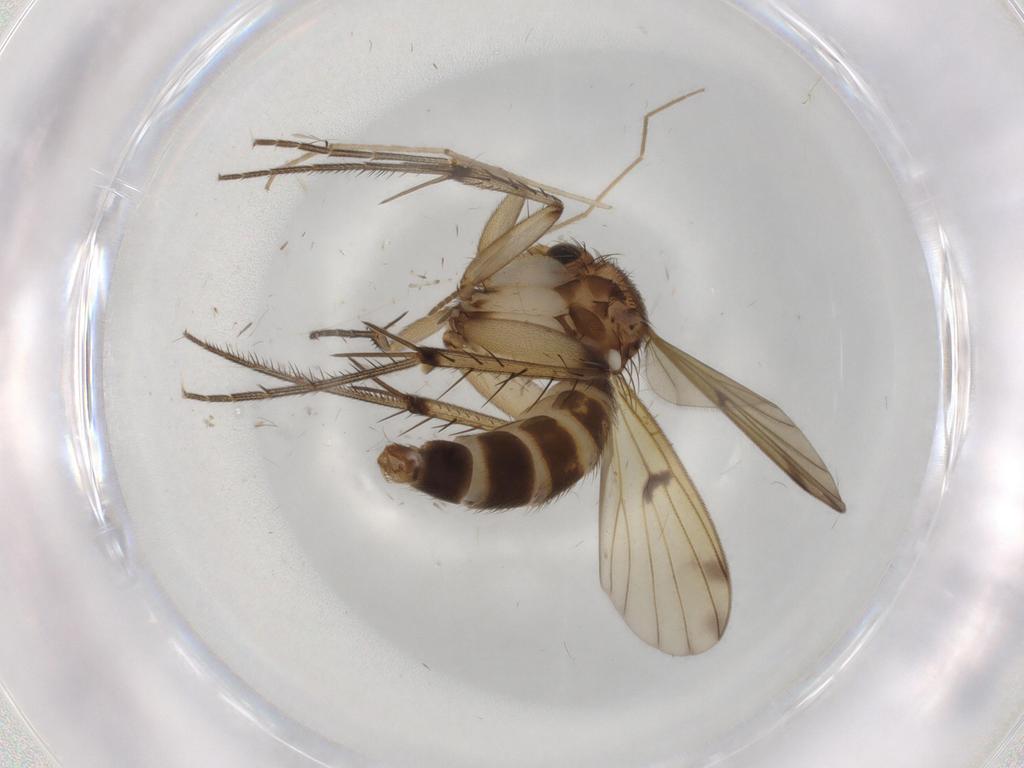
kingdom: Animalia
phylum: Arthropoda
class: Insecta
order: Diptera
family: Mycetophilidae
